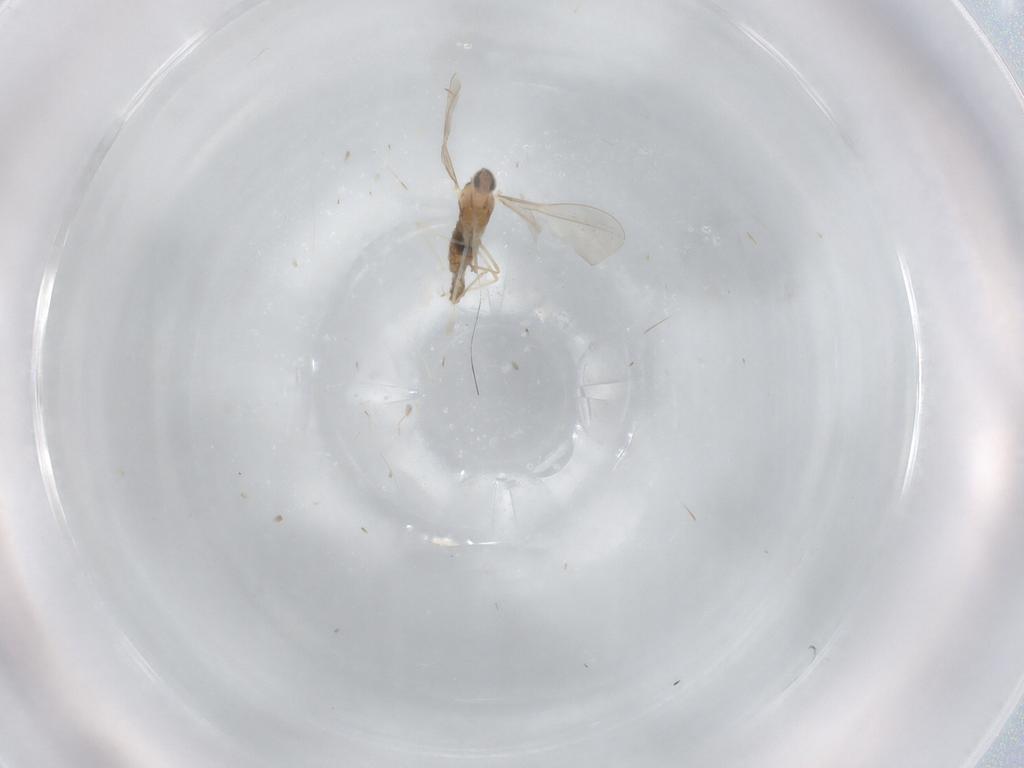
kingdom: Animalia
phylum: Arthropoda
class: Insecta
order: Diptera
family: Cecidomyiidae
